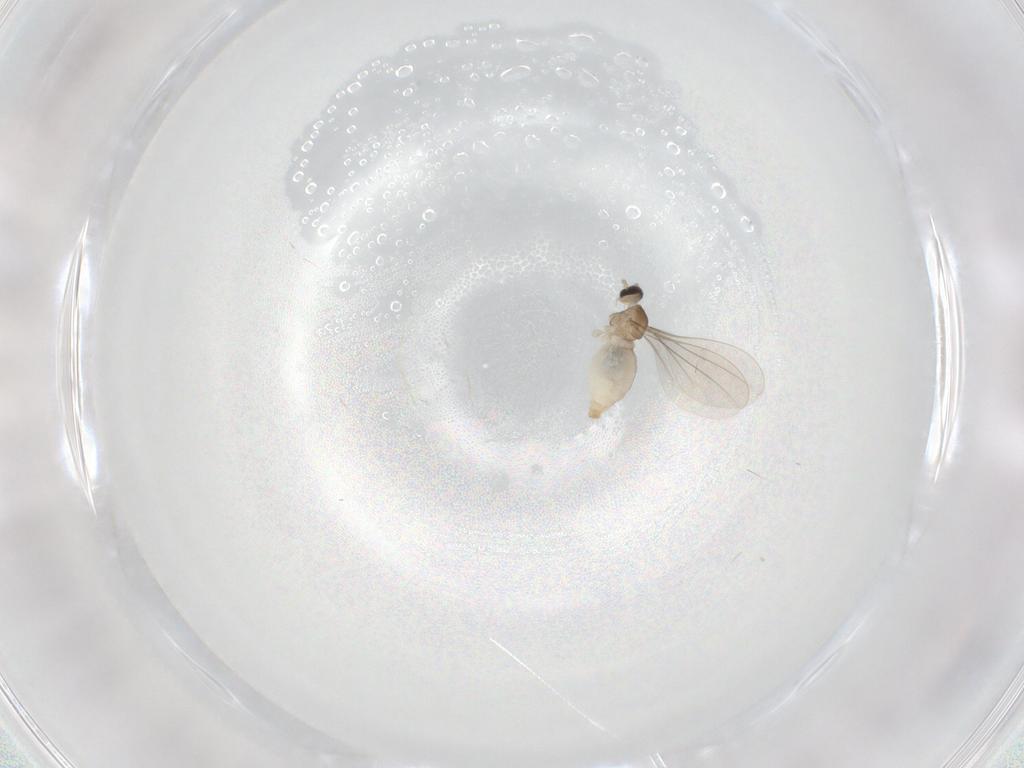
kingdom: Animalia
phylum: Arthropoda
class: Insecta
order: Diptera
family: Cecidomyiidae
